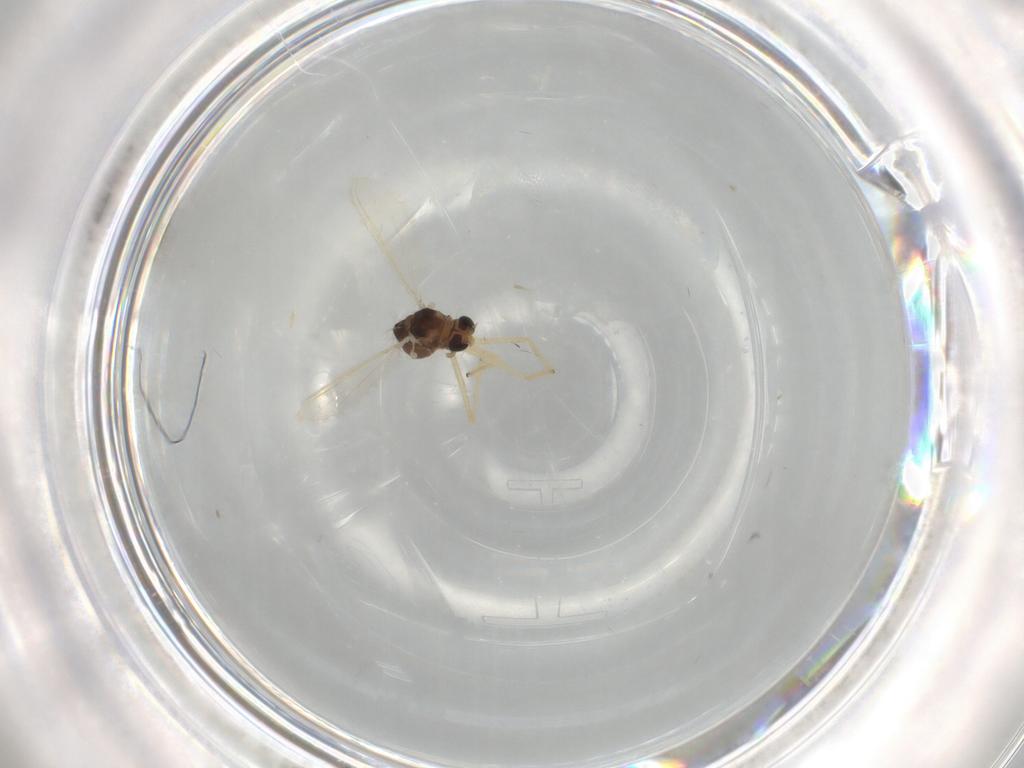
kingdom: Animalia
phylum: Arthropoda
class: Insecta
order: Diptera
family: Chironomidae
